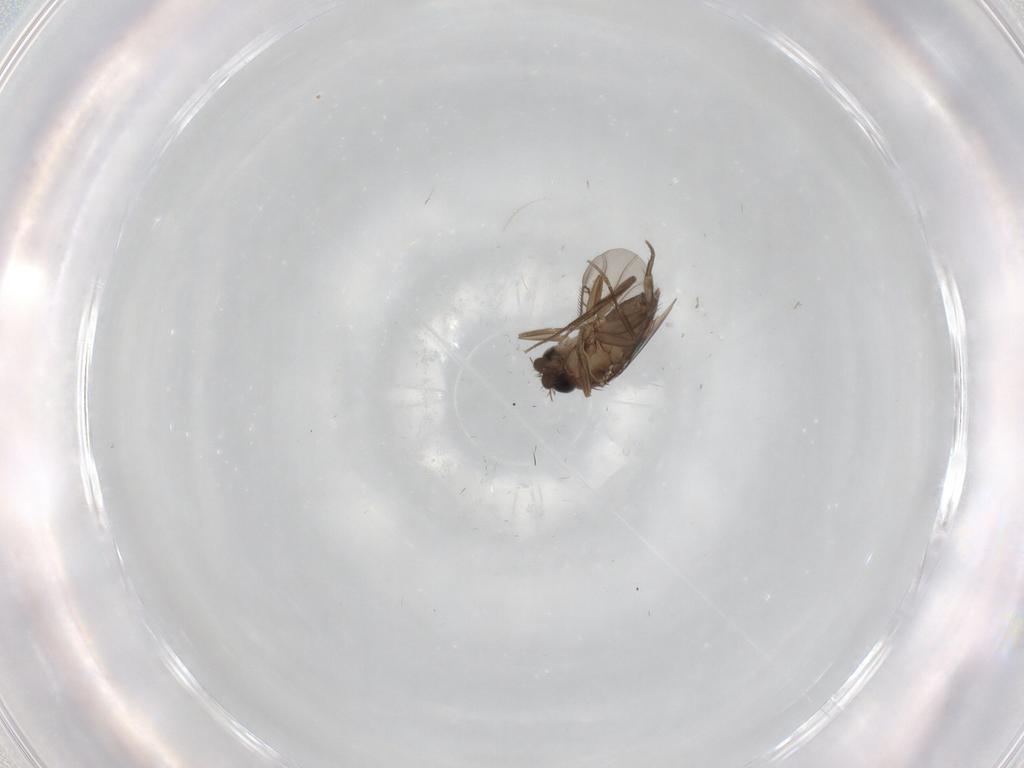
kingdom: Animalia
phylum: Arthropoda
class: Insecta
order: Diptera
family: Phoridae
